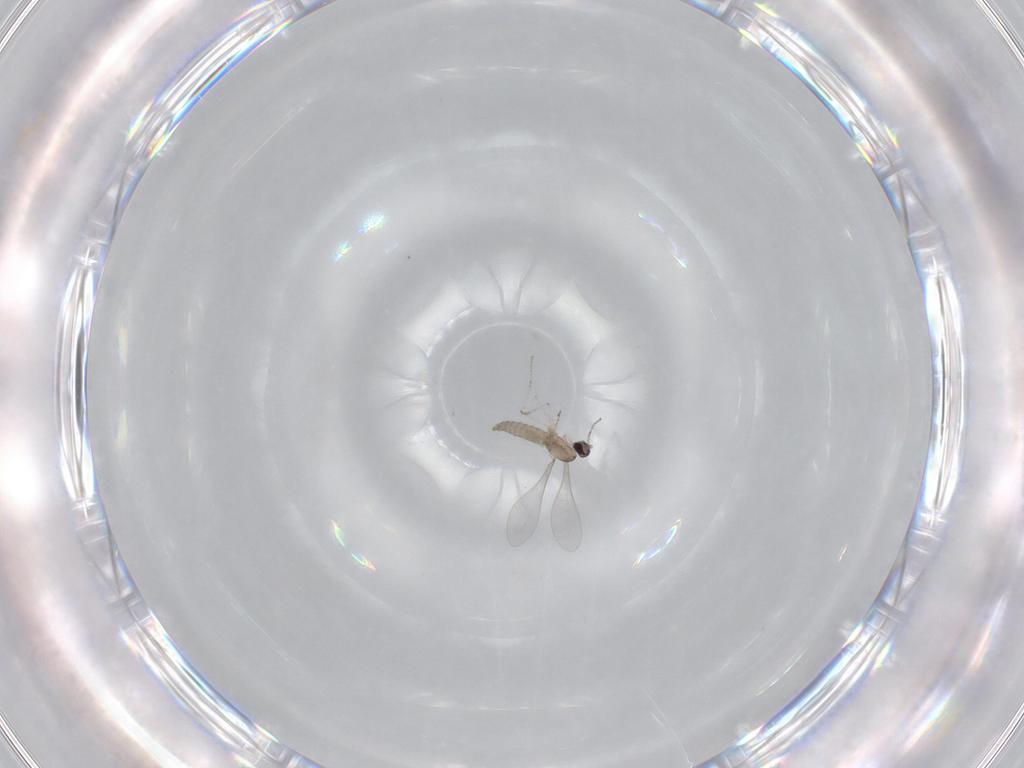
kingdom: Animalia
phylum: Arthropoda
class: Insecta
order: Diptera
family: Cecidomyiidae
